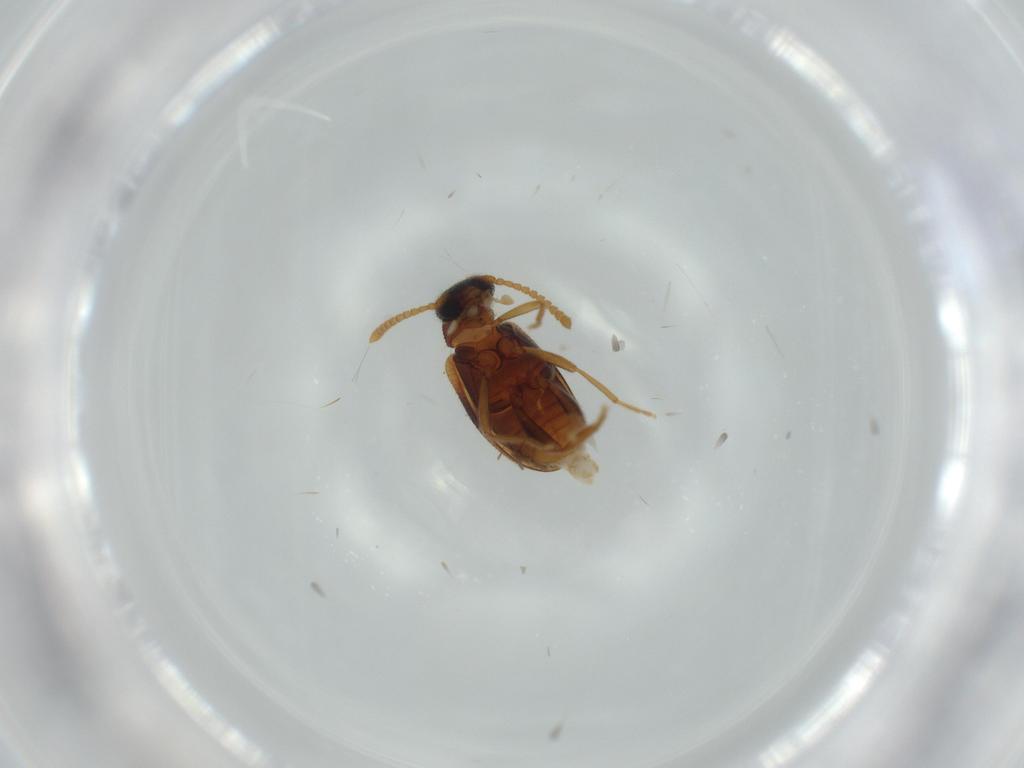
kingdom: Animalia
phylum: Arthropoda
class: Insecta
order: Coleoptera
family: Aderidae
